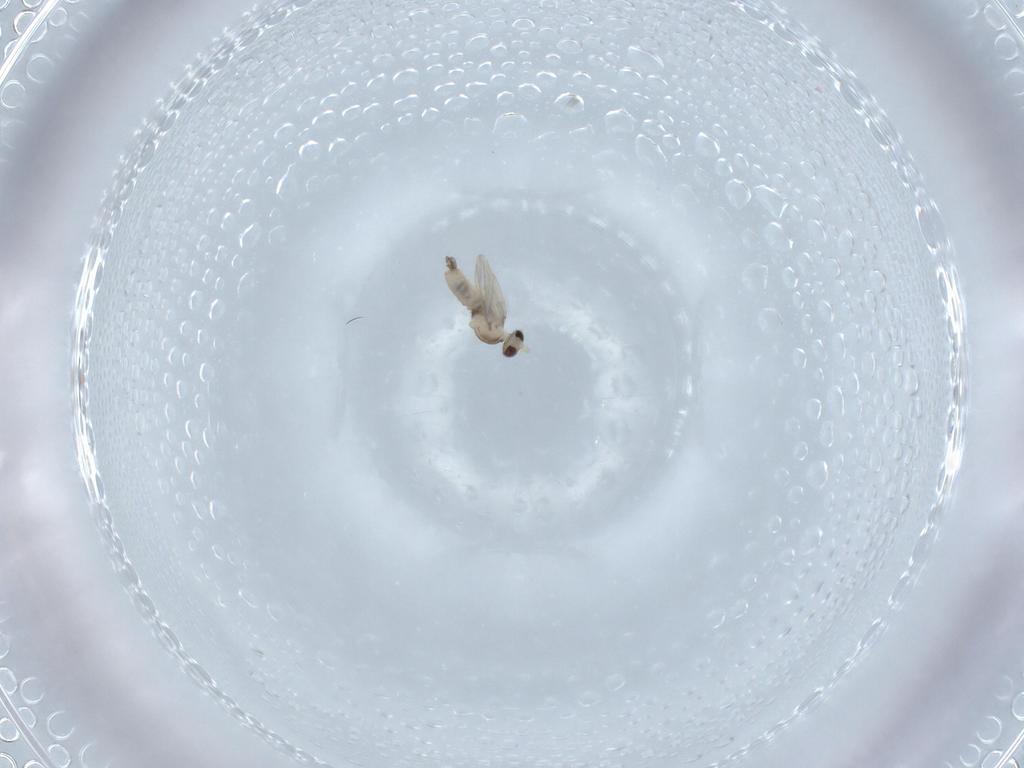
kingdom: Animalia
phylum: Arthropoda
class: Insecta
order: Diptera
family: Cecidomyiidae
